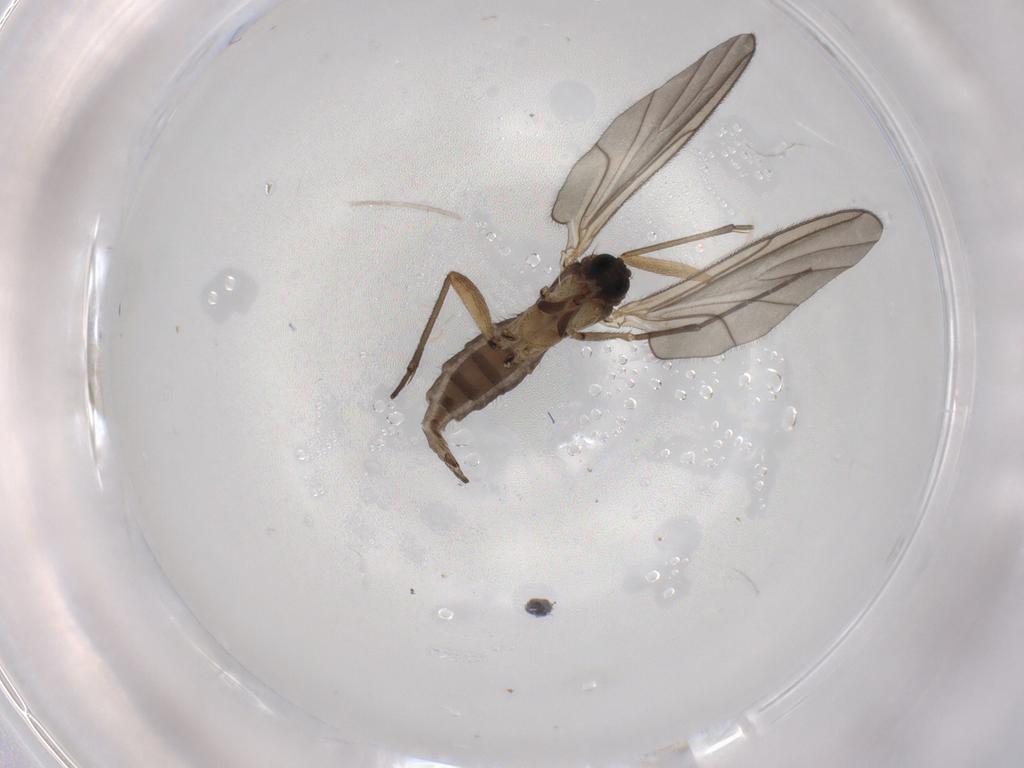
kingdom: Animalia
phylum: Arthropoda
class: Insecta
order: Diptera
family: Sciaridae
